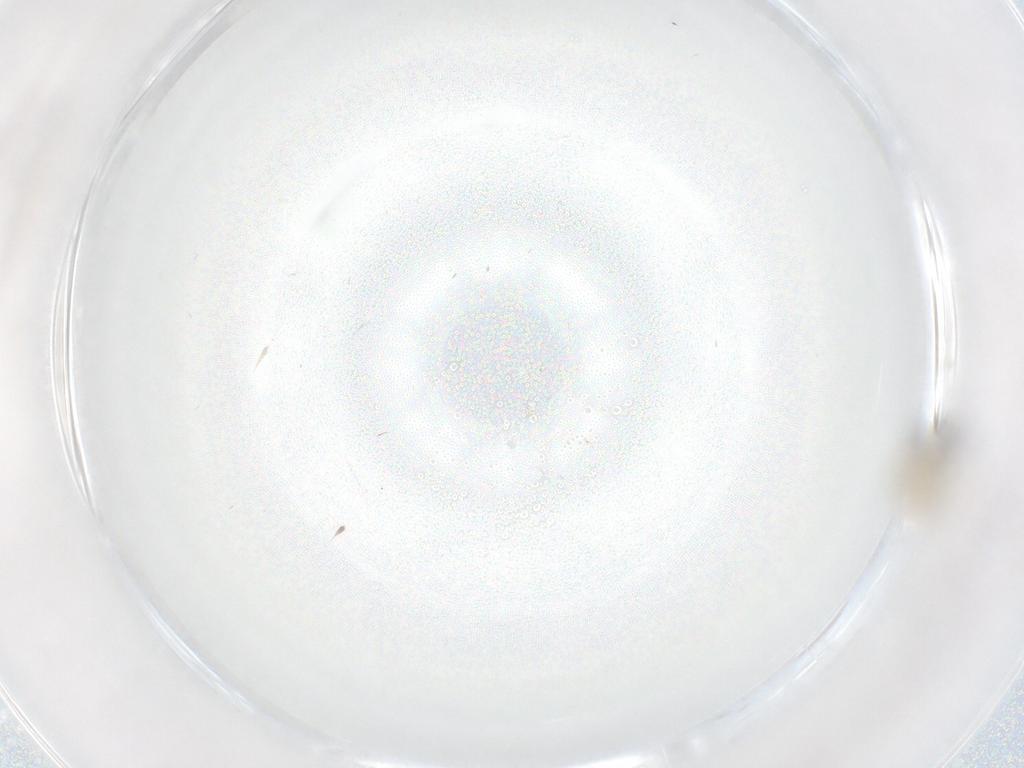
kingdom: Animalia
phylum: Arthropoda
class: Insecta
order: Diptera
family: Cecidomyiidae
